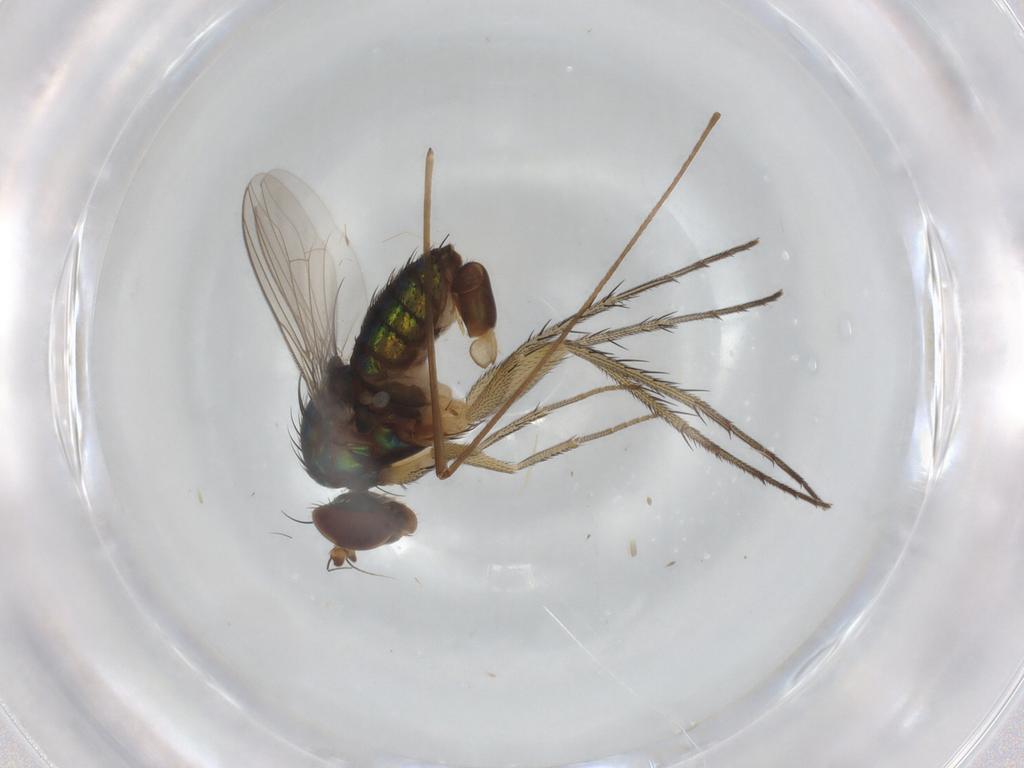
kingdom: Animalia
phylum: Arthropoda
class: Insecta
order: Diptera
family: Dolichopodidae
